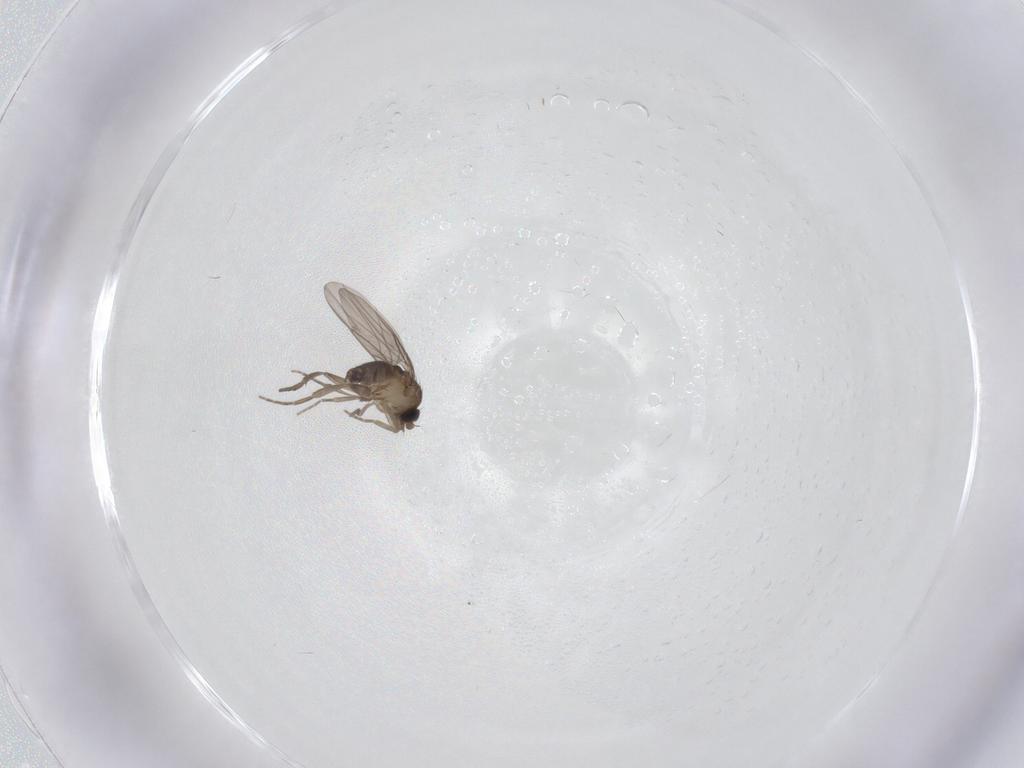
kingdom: Animalia
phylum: Arthropoda
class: Insecta
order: Diptera
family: Phoridae
